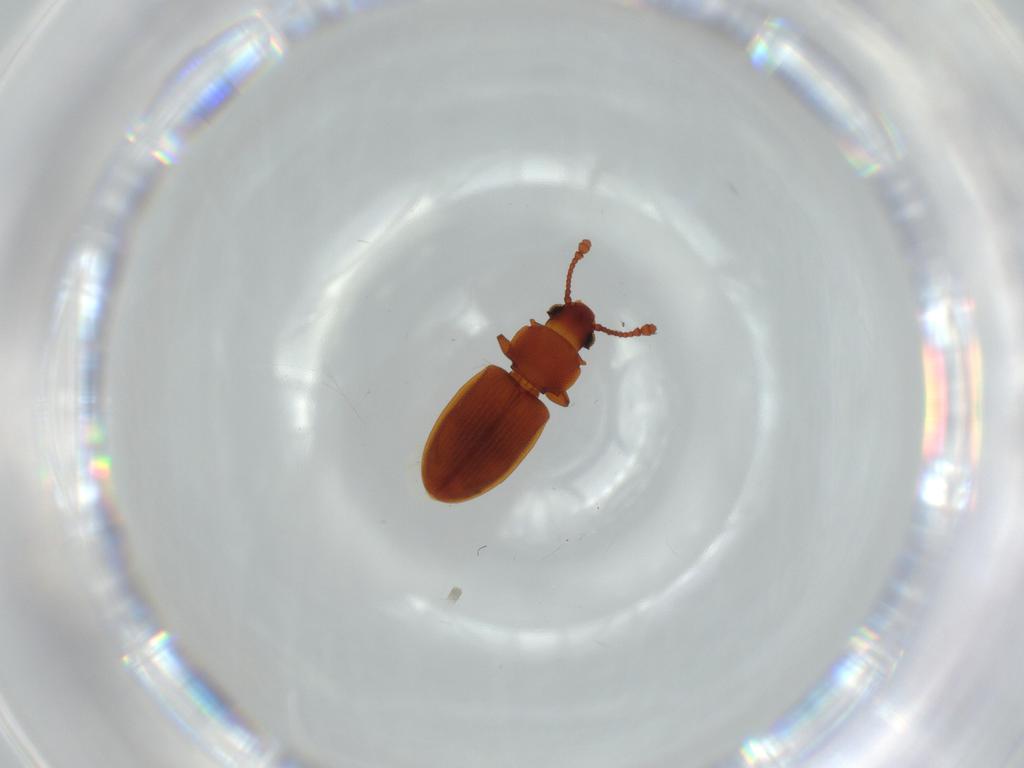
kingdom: Animalia
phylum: Arthropoda
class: Insecta
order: Coleoptera
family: Silvanidae
